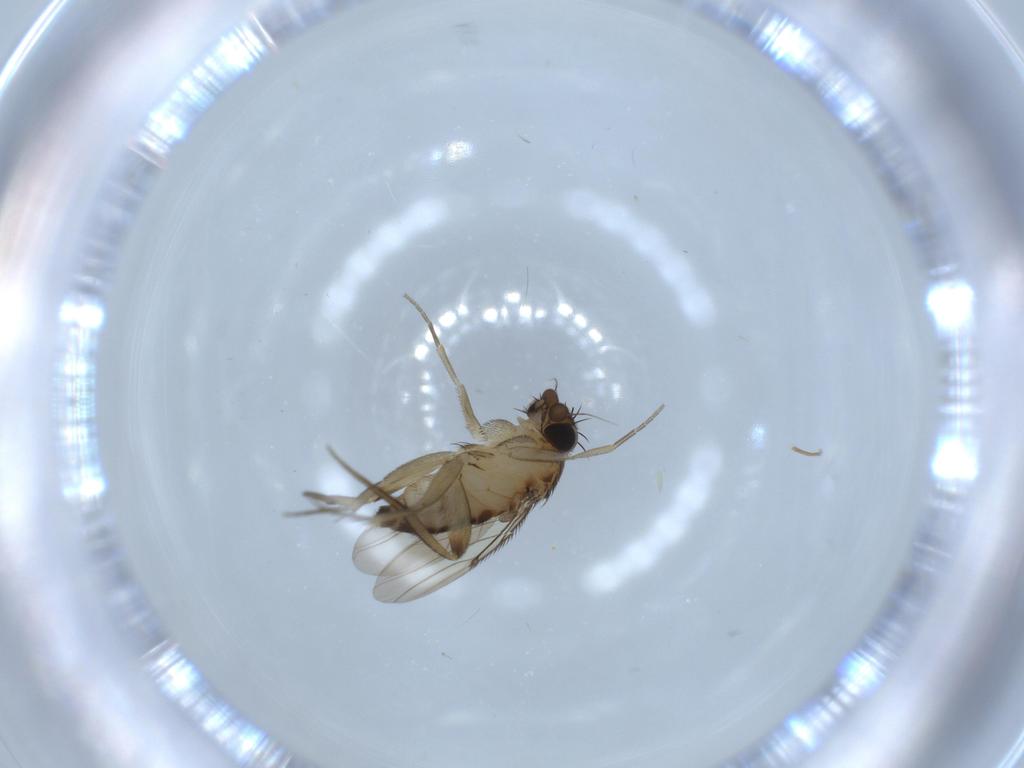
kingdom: Animalia
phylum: Arthropoda
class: Insecta
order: Diptera
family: Phoridae
